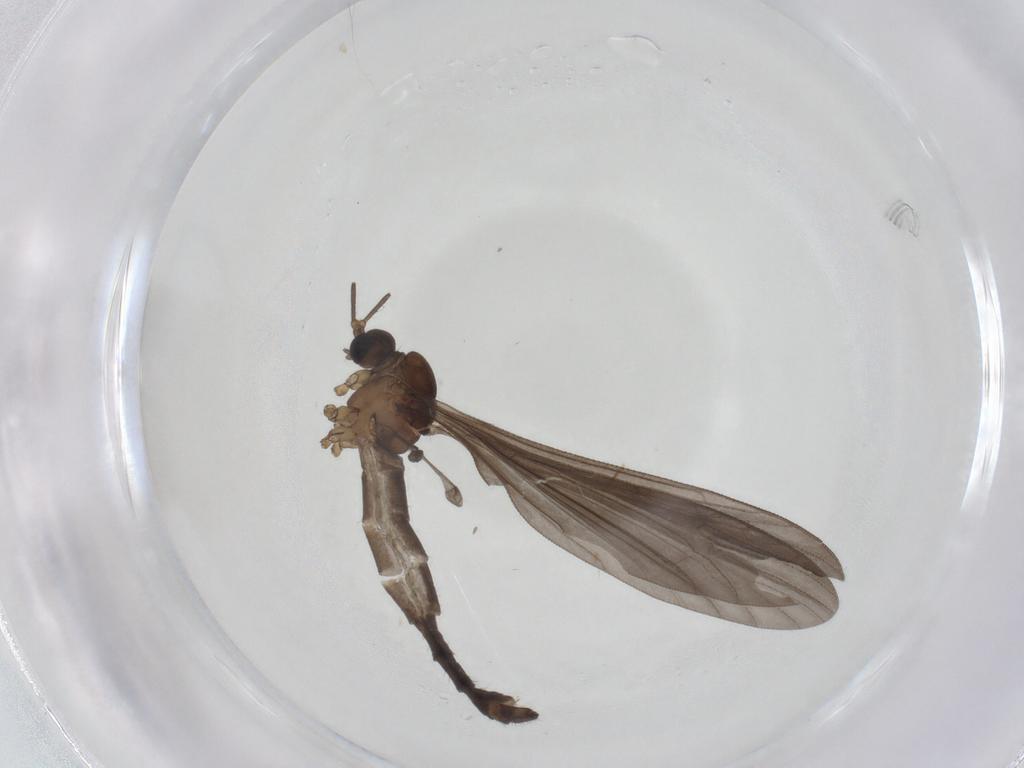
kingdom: Animalia
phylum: Arthropoda
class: Insecta
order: Diptera
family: Limoniidae
